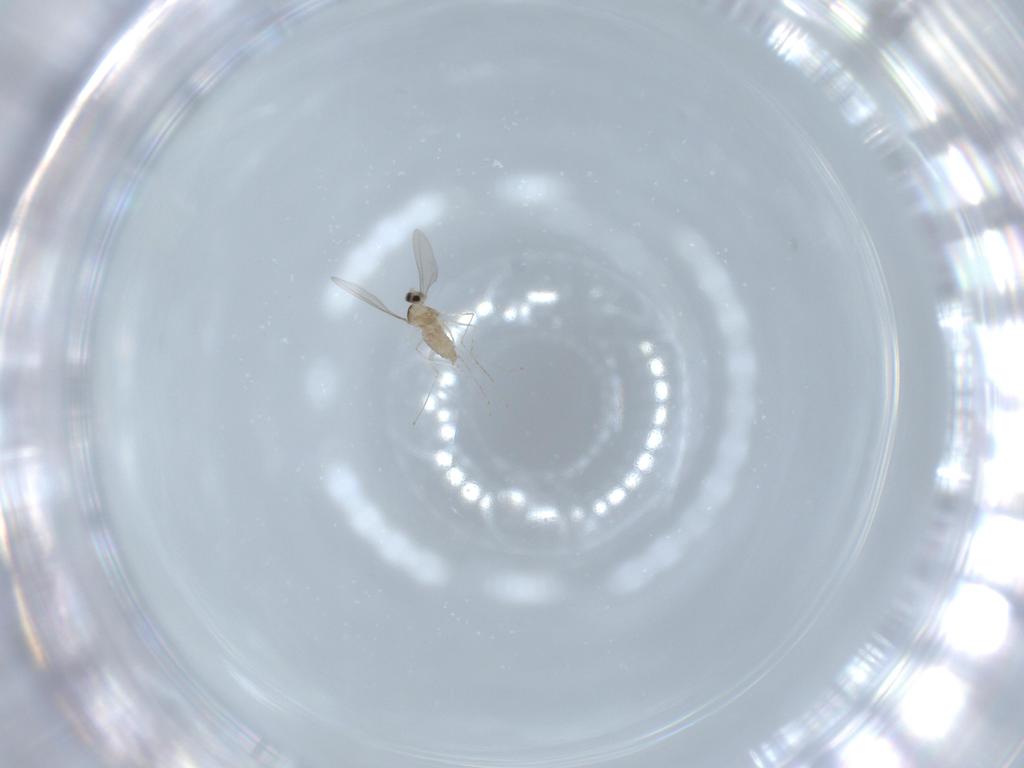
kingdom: Animalia
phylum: Arthropoda
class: Insecta
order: Diptera
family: Cecidomyiidae
